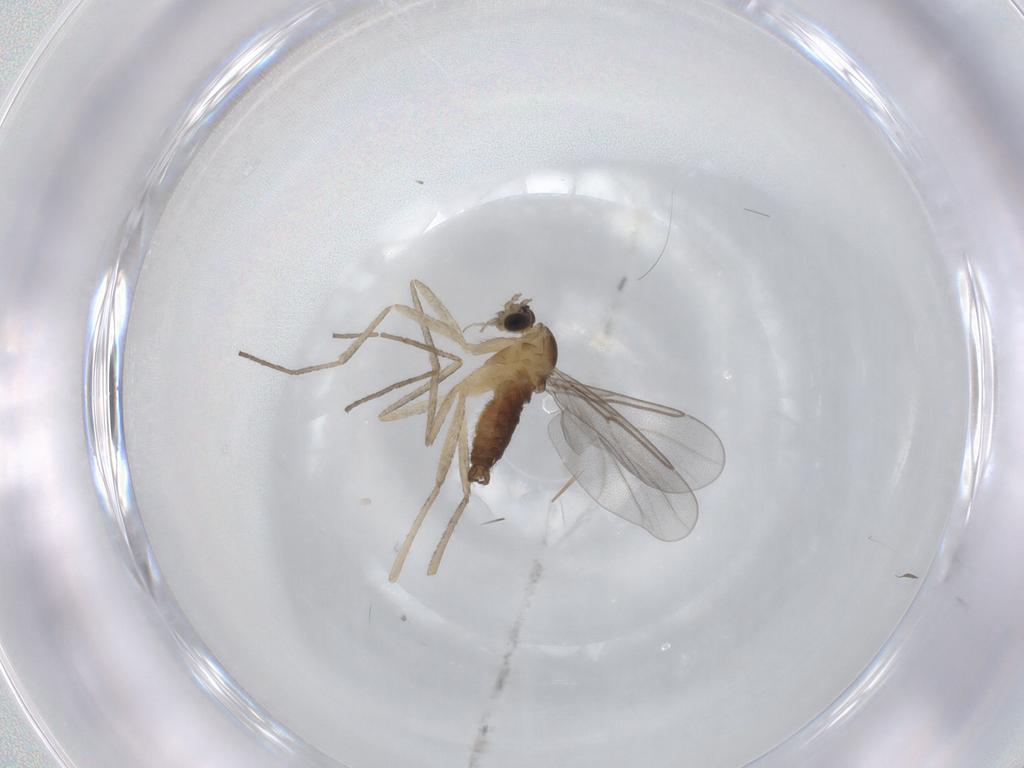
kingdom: Animalia
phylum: Arthropoda
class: Insecta
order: Diptera
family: Cecidomyiidae
